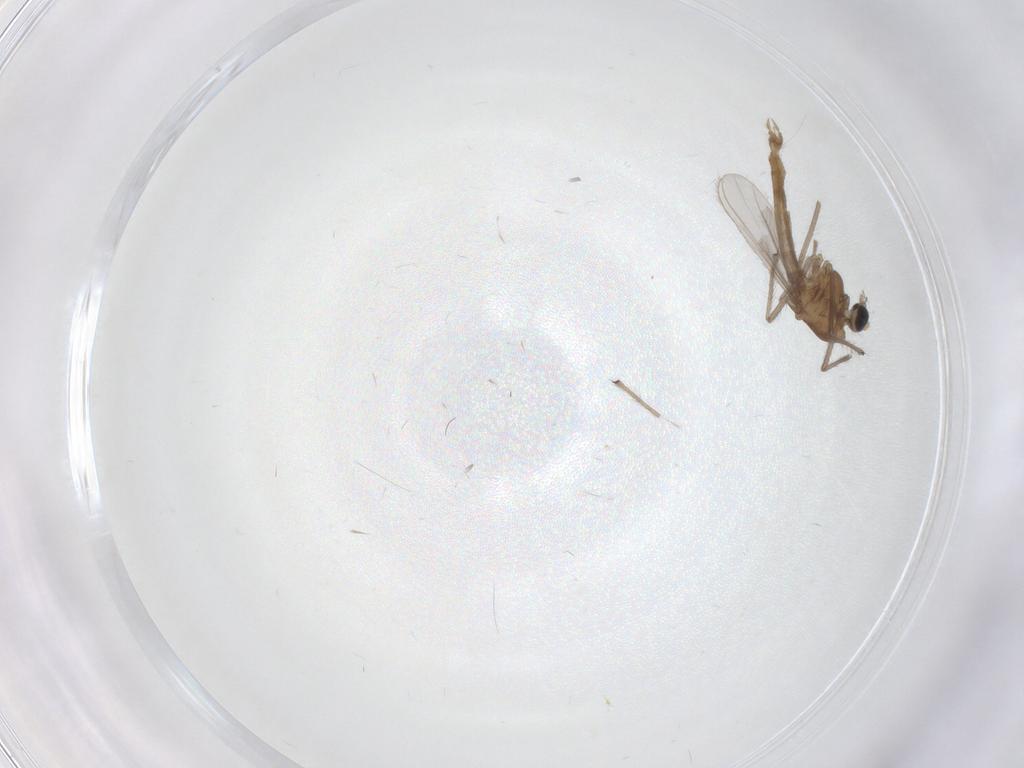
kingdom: Animalia
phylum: Arthropoda
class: Insecta
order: Diptera
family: Chironomidae
